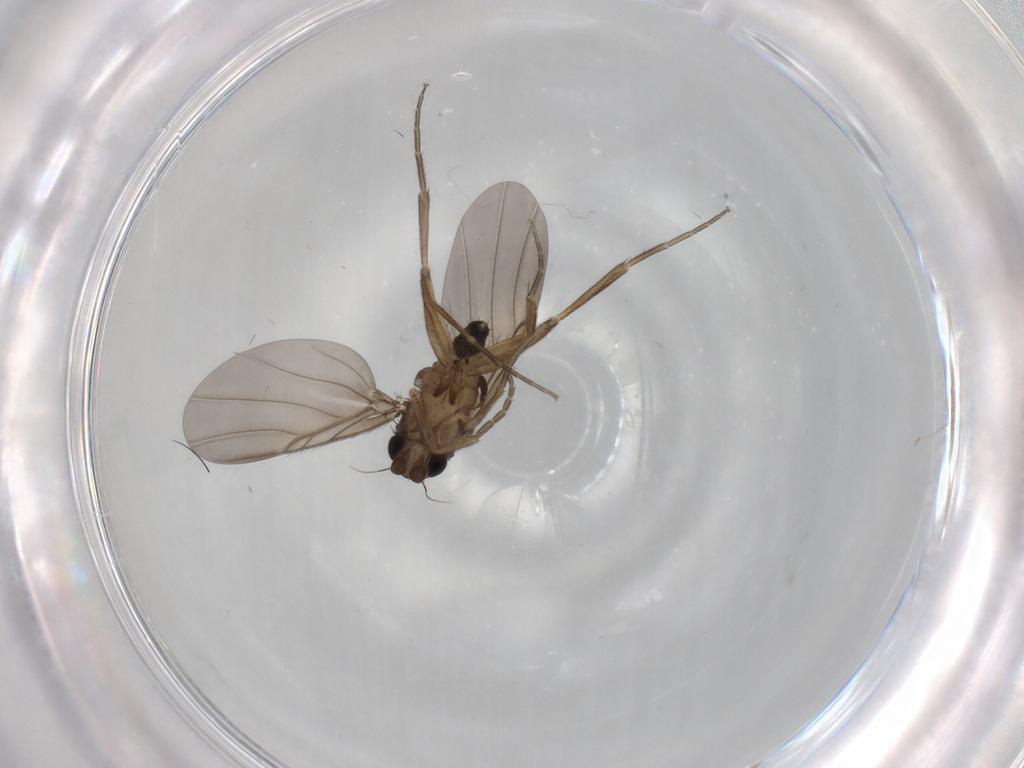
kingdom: Animalia
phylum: Arthropoda
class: Insecta
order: Diptera
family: Phoridae
